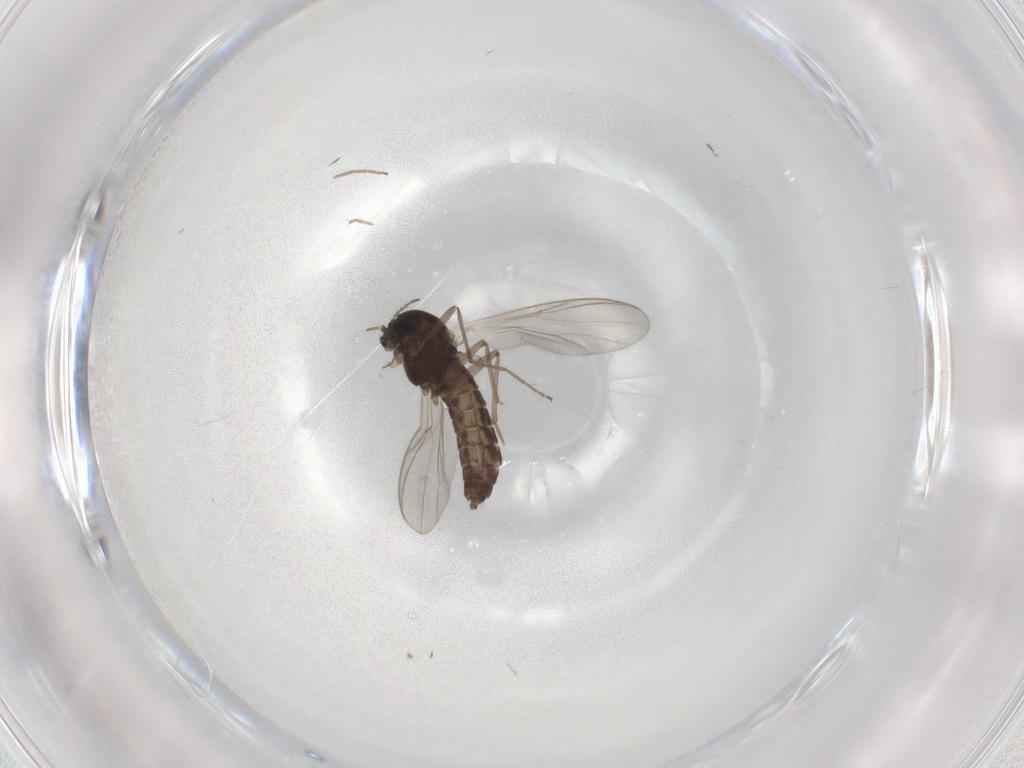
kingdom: Animalia
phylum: Arthropoda
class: Insecta
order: Diptera
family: Chironomidae
